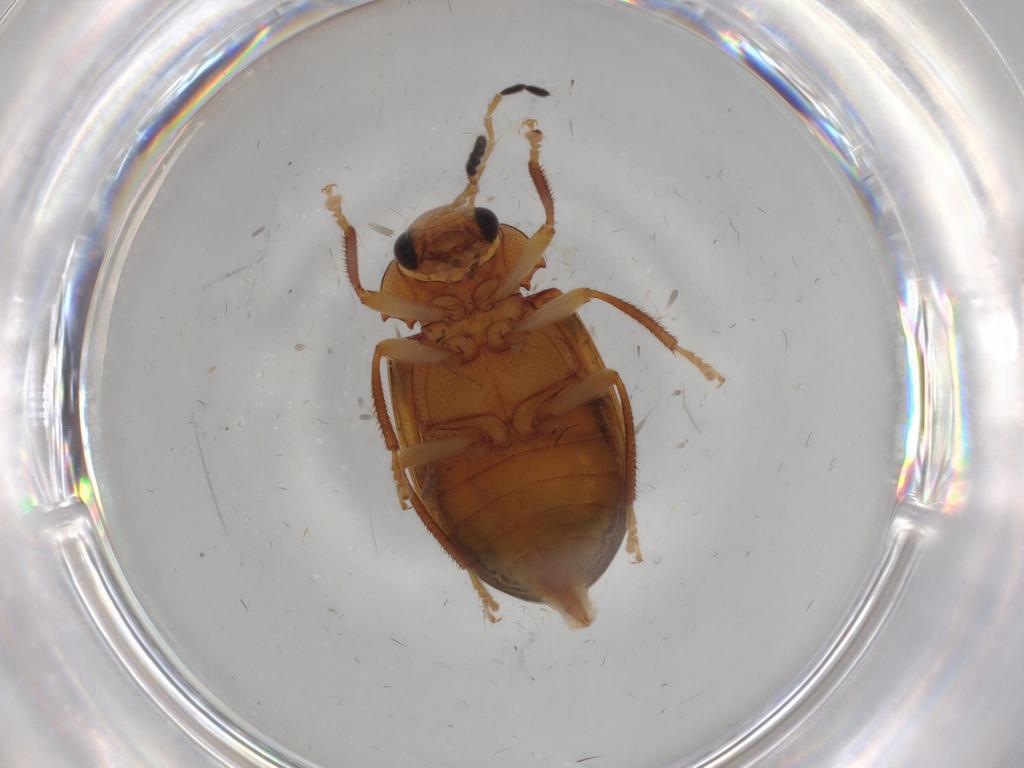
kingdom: Animalia
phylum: Arthropoda
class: Insecta
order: Coleoptera
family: Ptilodactylidae
